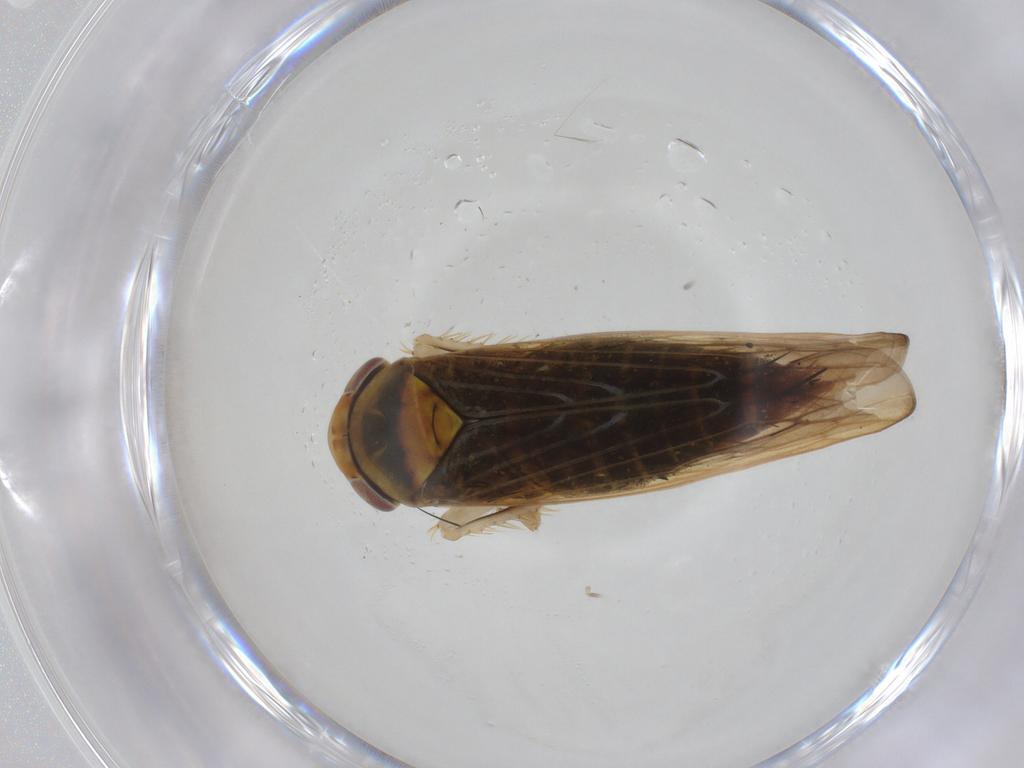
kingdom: Animalia
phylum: Arthropoda
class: Insecta
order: Hemiptera
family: Cicadellidae
